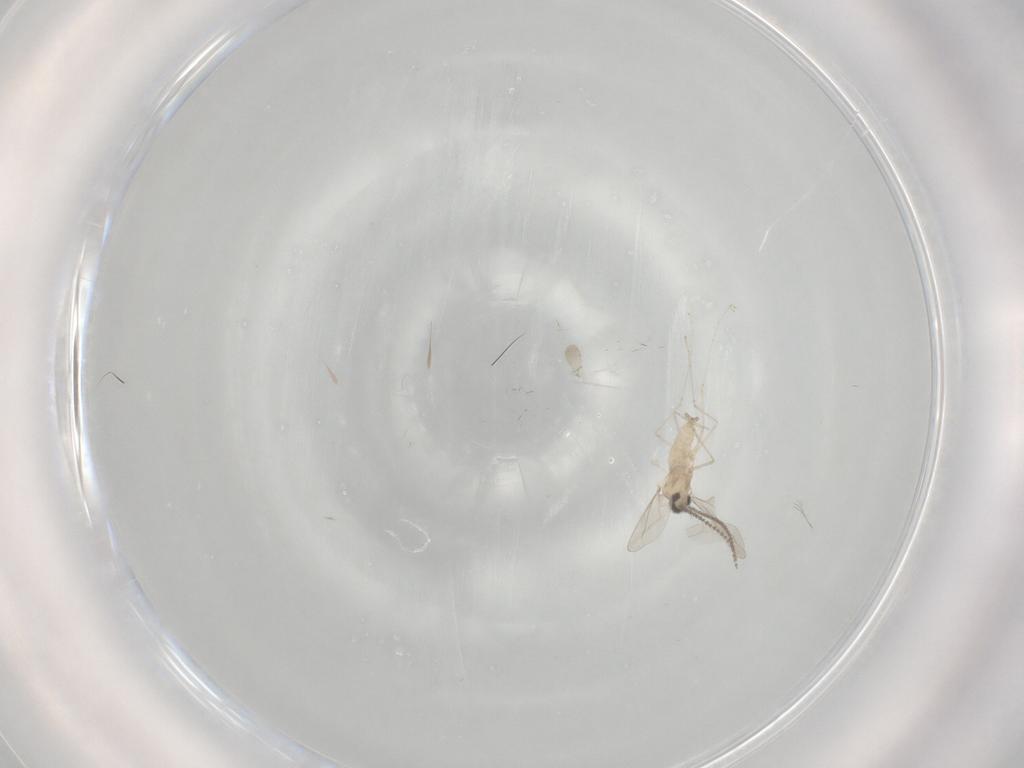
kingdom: Animalia
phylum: Arthropoda
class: Insecta
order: Diptera
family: Cecidomyiidae
